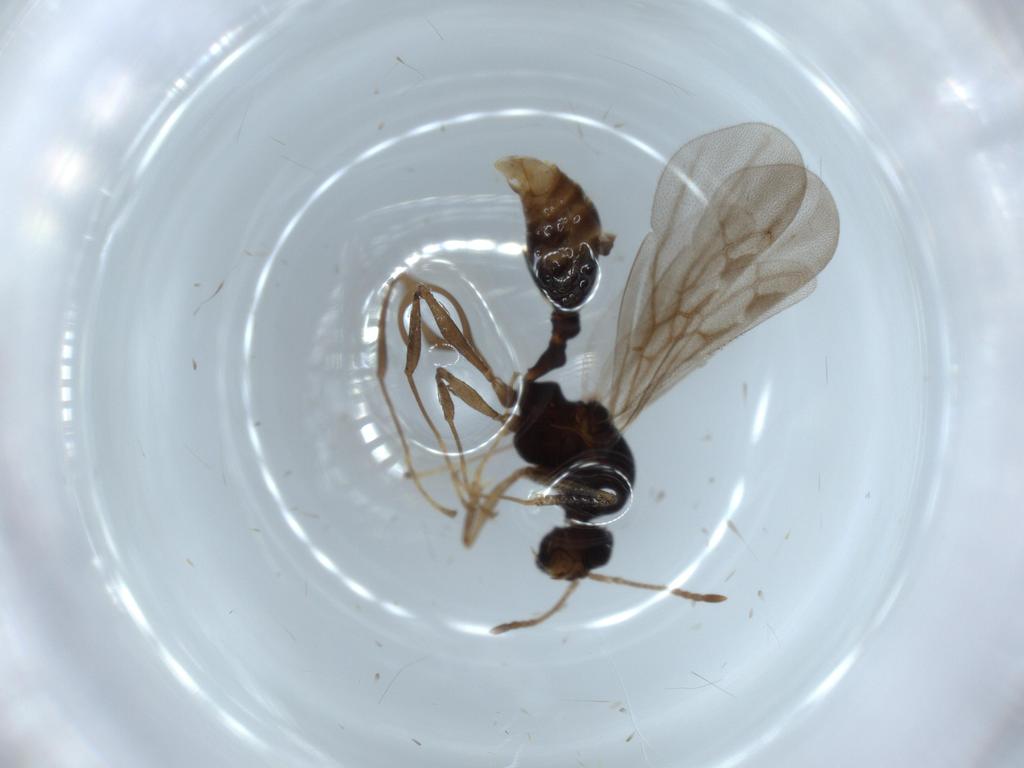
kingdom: Animalia
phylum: Arthropoda
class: Insecta
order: Hymenoptera
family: Formicidae
